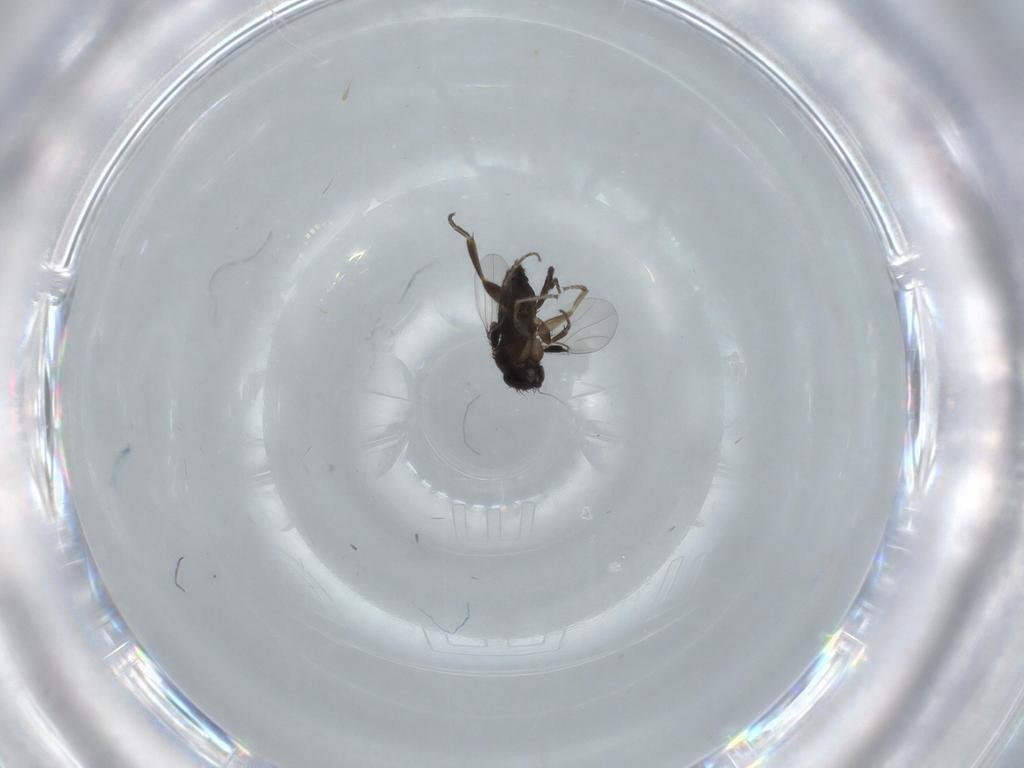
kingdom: Animalia
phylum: Arthropoda
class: Insecta
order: Diptera
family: Phoridae
